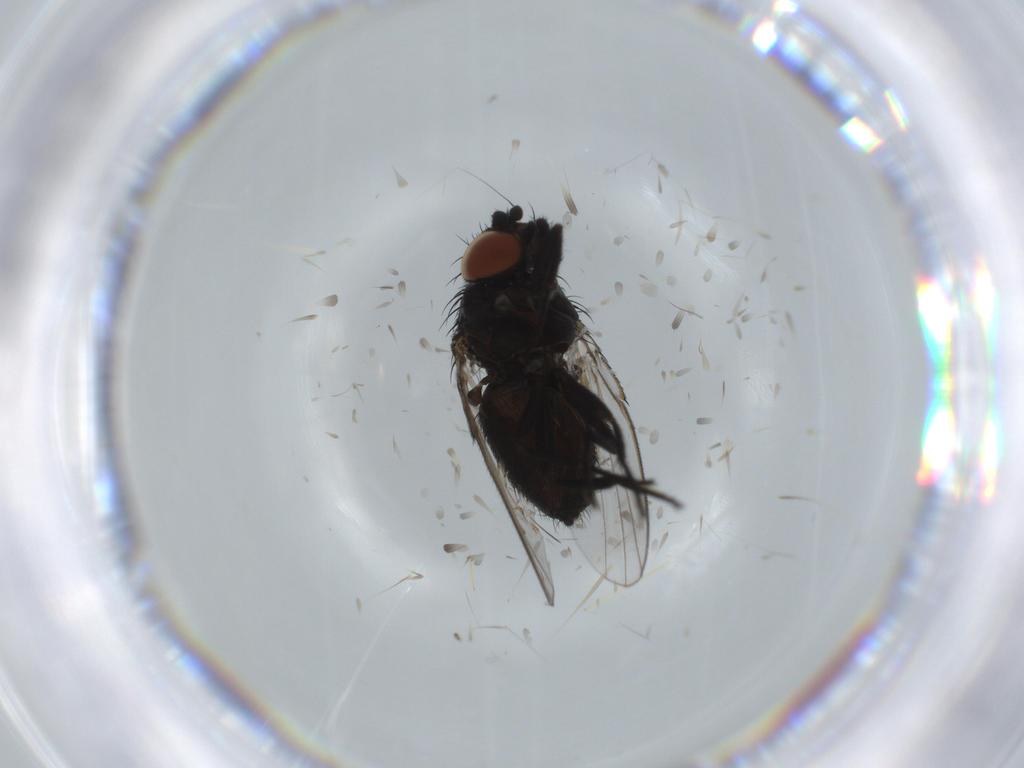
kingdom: Animalia
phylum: Arthropoda
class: Insecta
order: Diptera
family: Milichiidae
